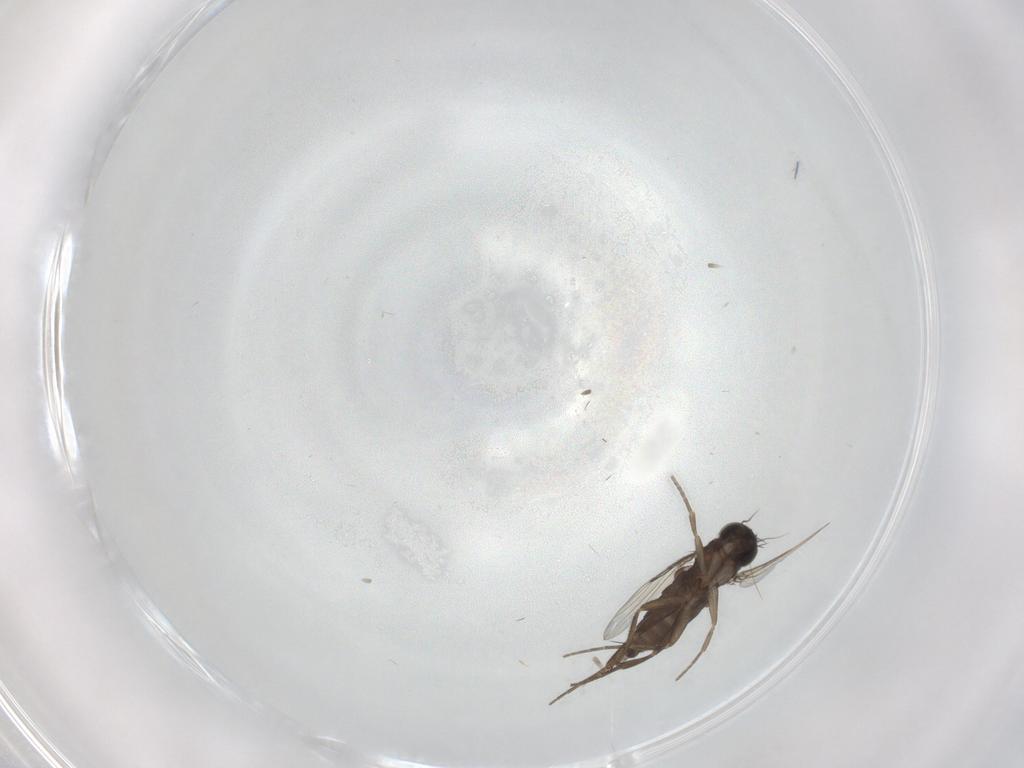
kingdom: Animalia
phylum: Arthropoda
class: Insecta
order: Diptera
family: Phoridae
